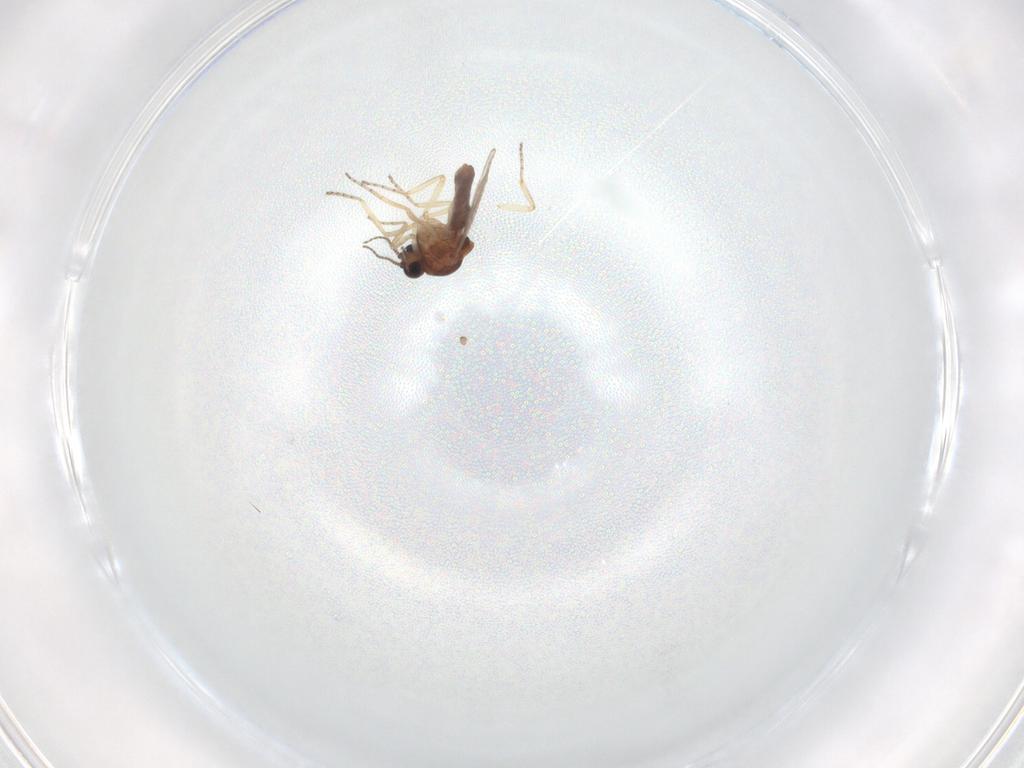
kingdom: Animalia
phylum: Arthropoda
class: Insecta
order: Diptera
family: Ceratopogonidae
